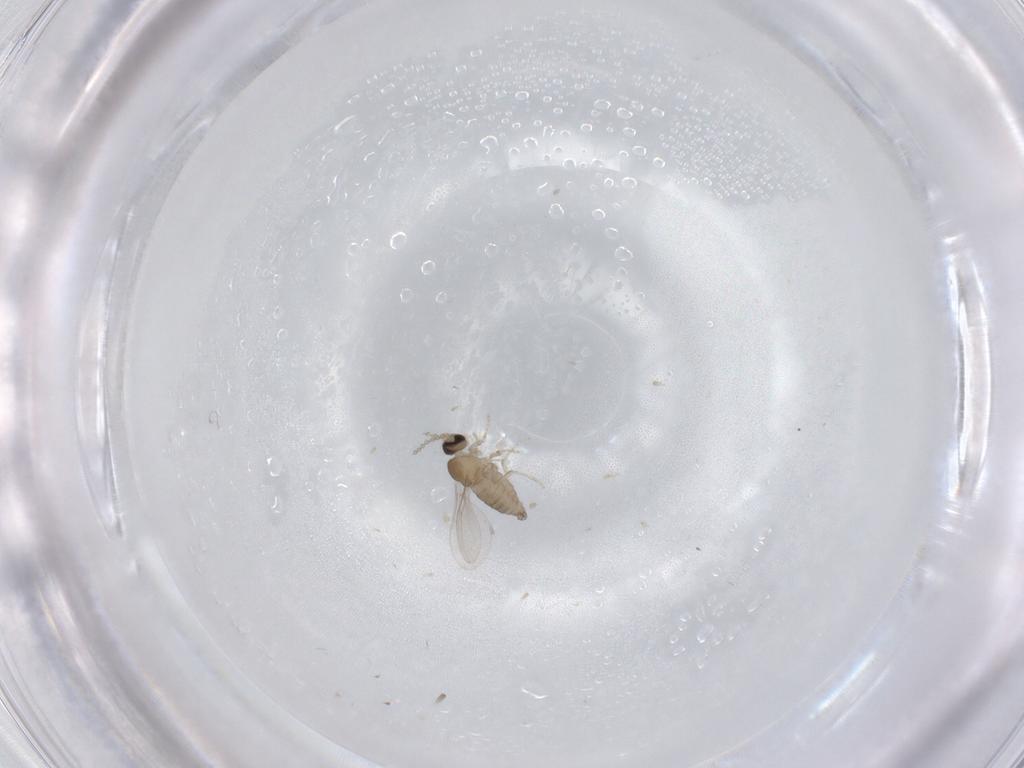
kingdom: Animalia
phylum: Arthropoda
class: Insecta
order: Diptera
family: Cecidomyiidae
